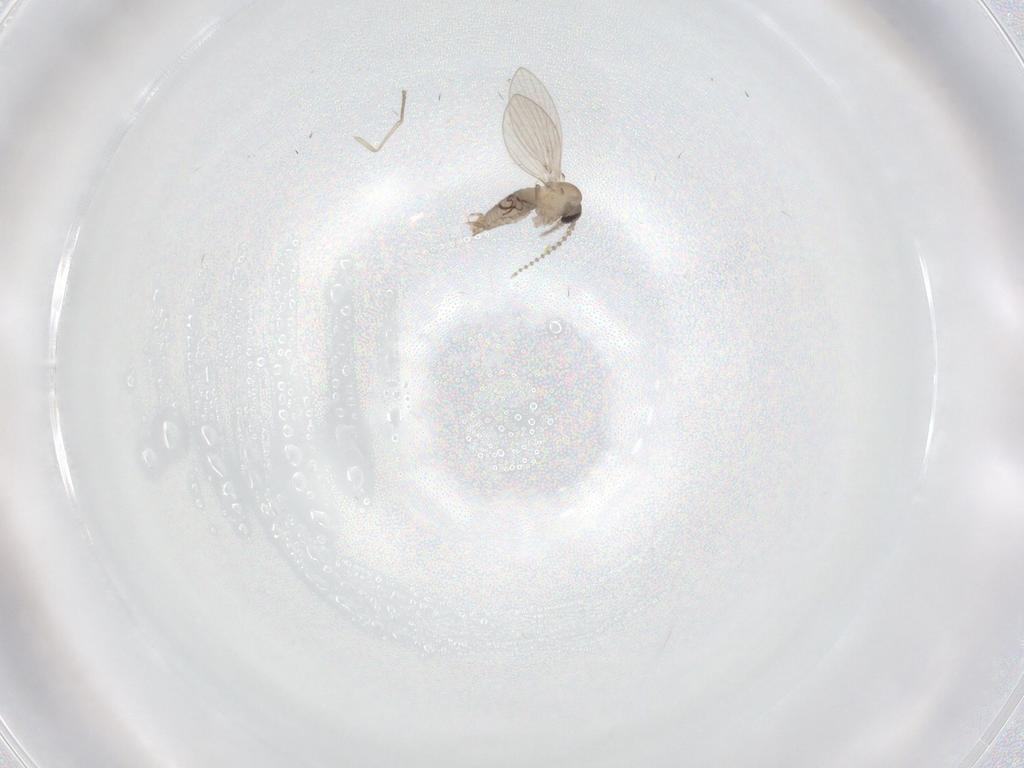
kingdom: Animalia
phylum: Arthropoda
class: Insecta
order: Diptera
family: Psychodidae
